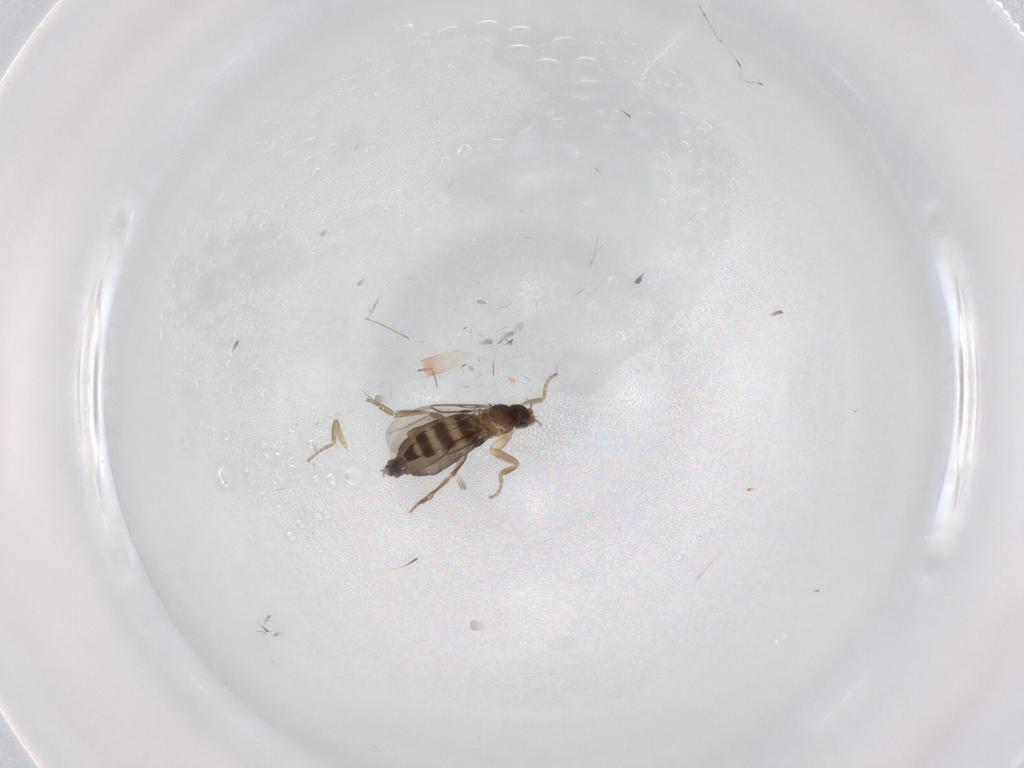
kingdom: Animalia
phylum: Arthropoda
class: Insecta
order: Diptera
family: Phoridae
